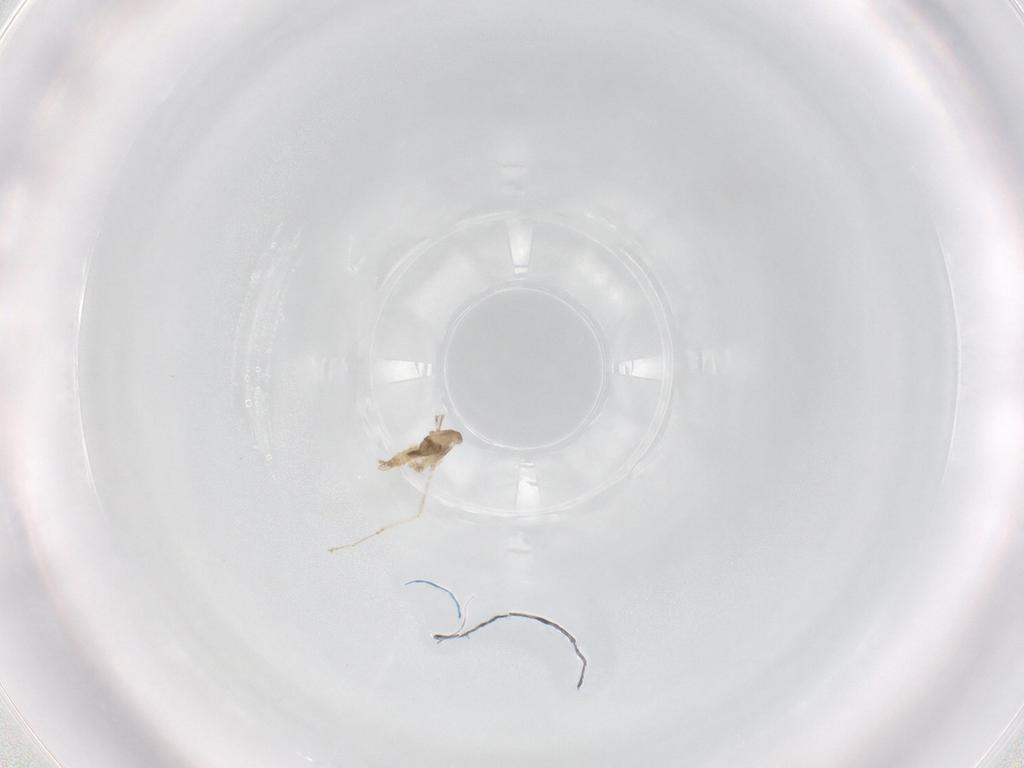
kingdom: Animalia
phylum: Arthropoda
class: Insecta
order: Diptera
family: Cecidomyiidae
